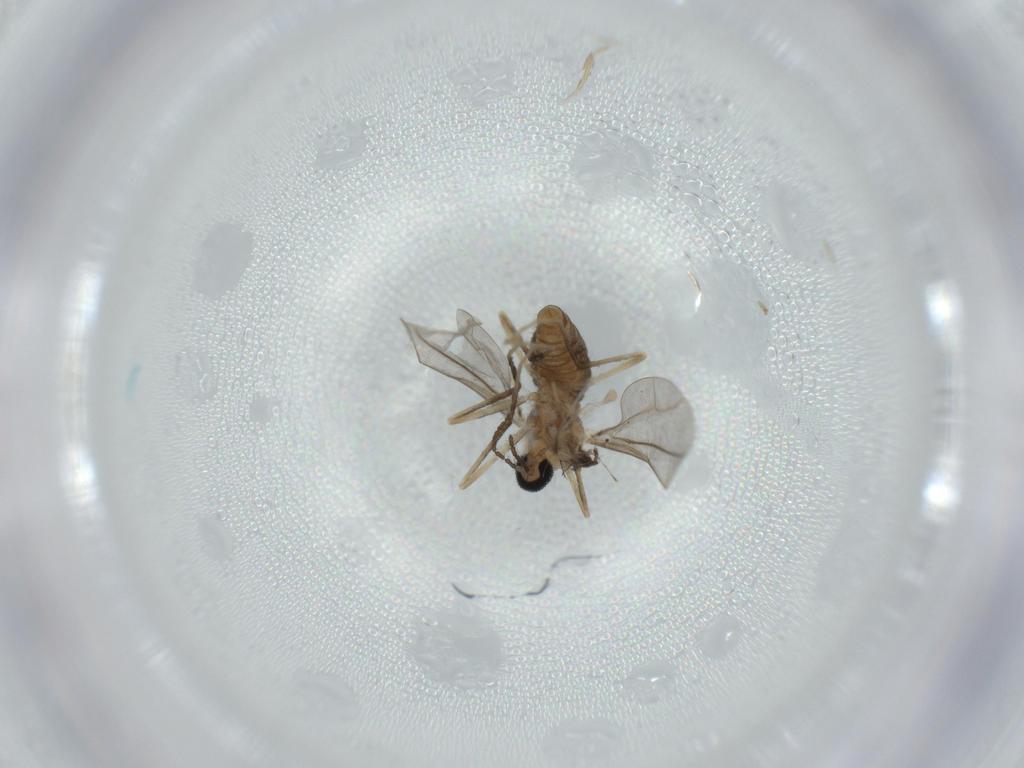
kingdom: Animalia
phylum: Arthropoda
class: Insecta
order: Diptera
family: Cecidomyiidae
